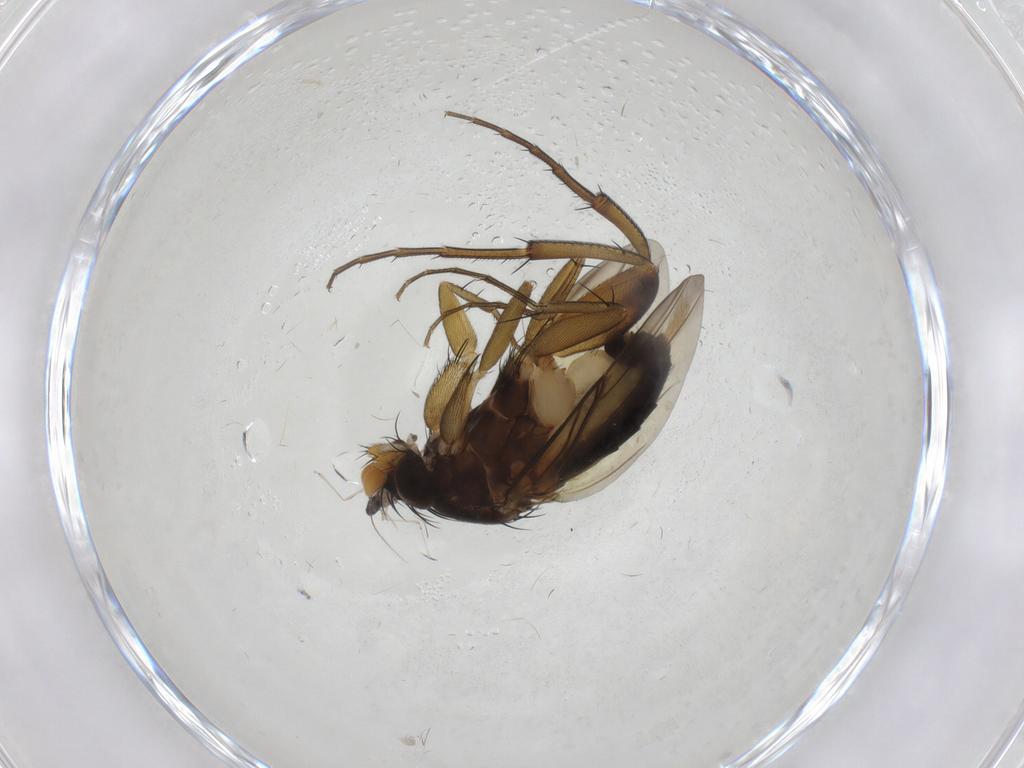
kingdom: Animalia
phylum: Arthropoda
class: Insecta
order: Diptera
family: Phoridae
